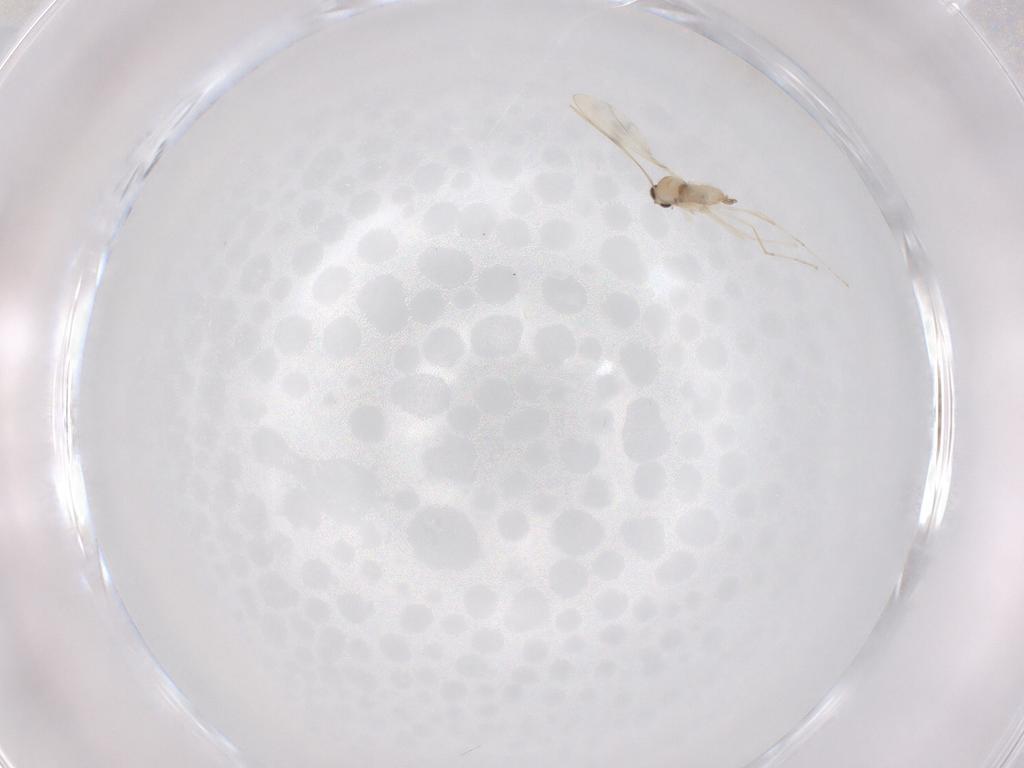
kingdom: Animalia
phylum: Arthropoda
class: Insecta
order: Diptera
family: Cecidomyiidae
